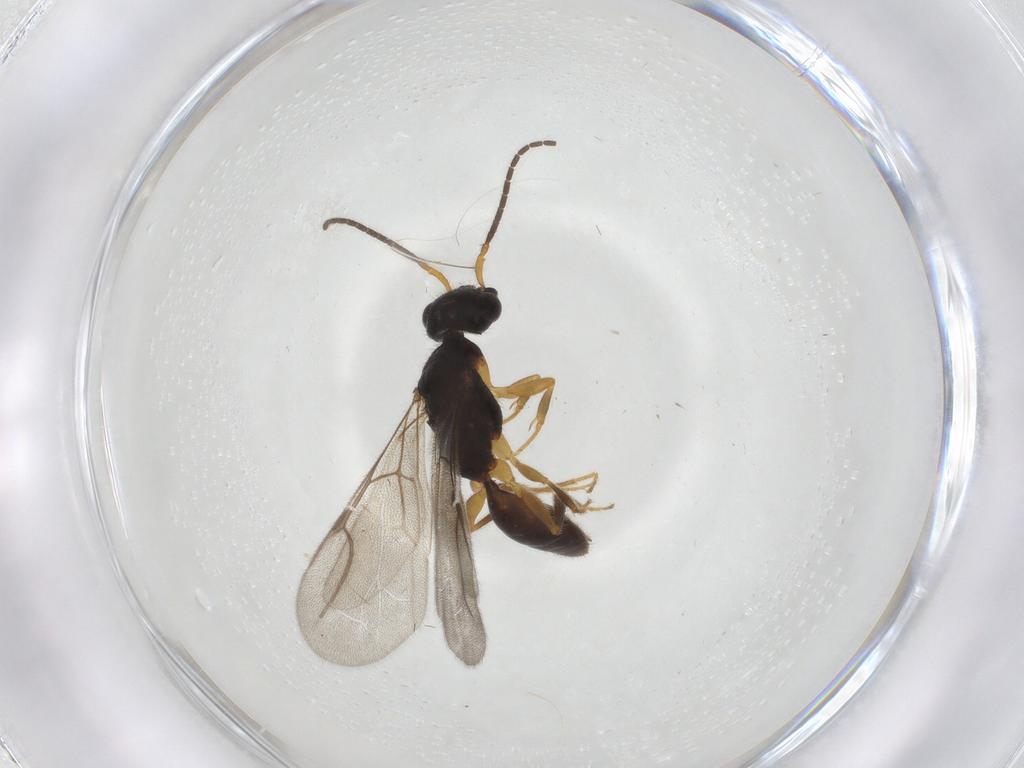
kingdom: Animalia
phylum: Arthropoda
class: Insecta
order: Hymenoptera
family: Bethylidae
